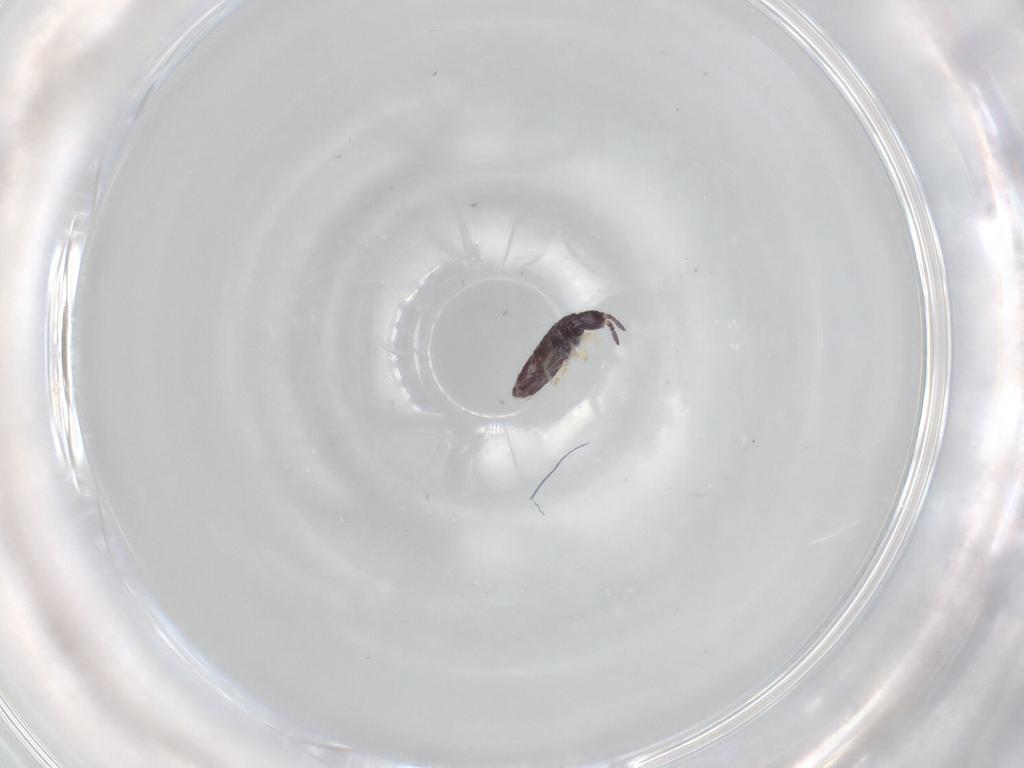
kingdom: Animalia
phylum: Arthropoda
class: Collembola
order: Entomobryomorpha
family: Entomobryidae
